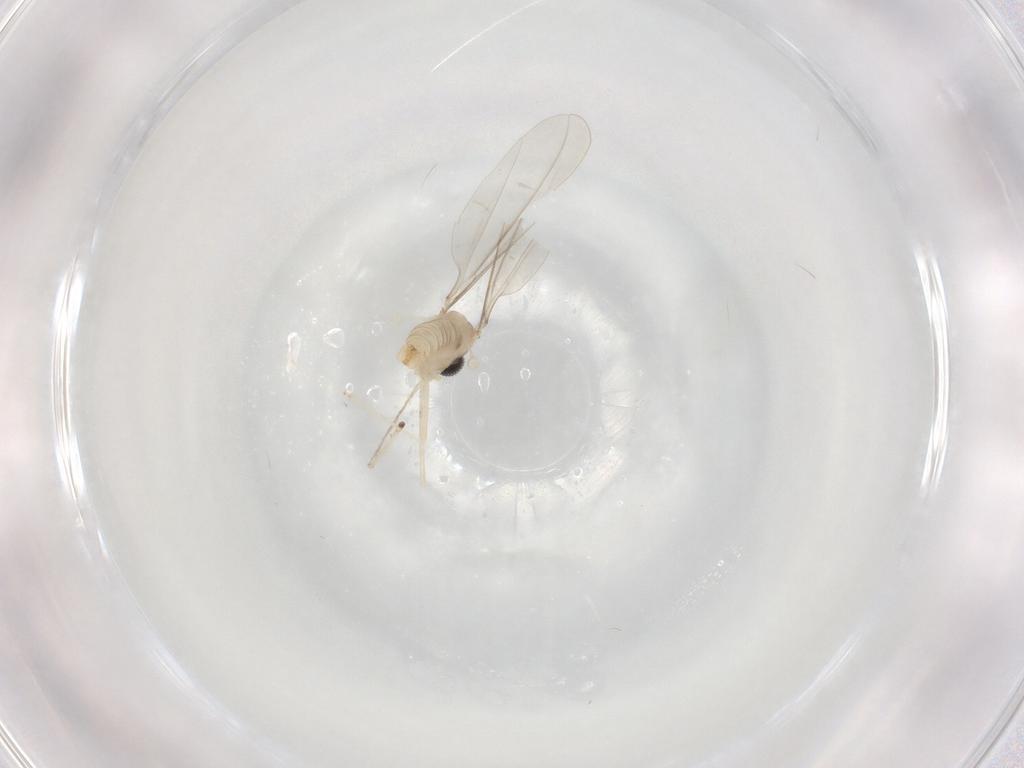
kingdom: Animalia
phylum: Arthropoda
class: Insecta
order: Diptera
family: Cecidomyiidae
